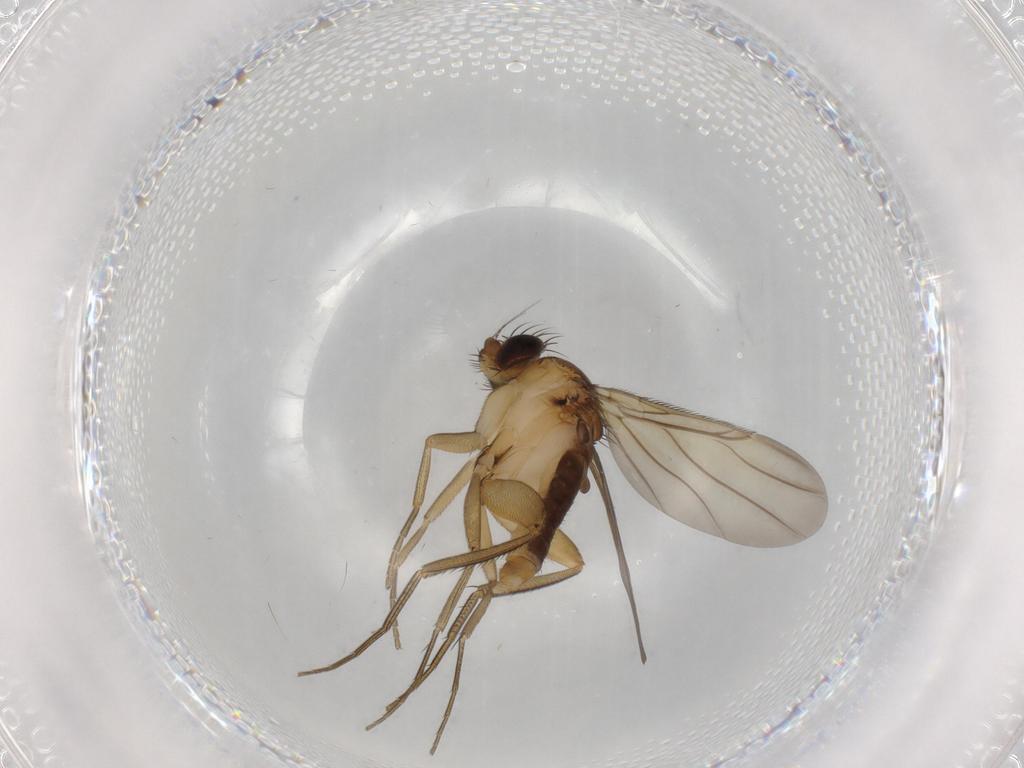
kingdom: Animalia
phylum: Arthropoda
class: Insecta
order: Diptera
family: Phoridae
